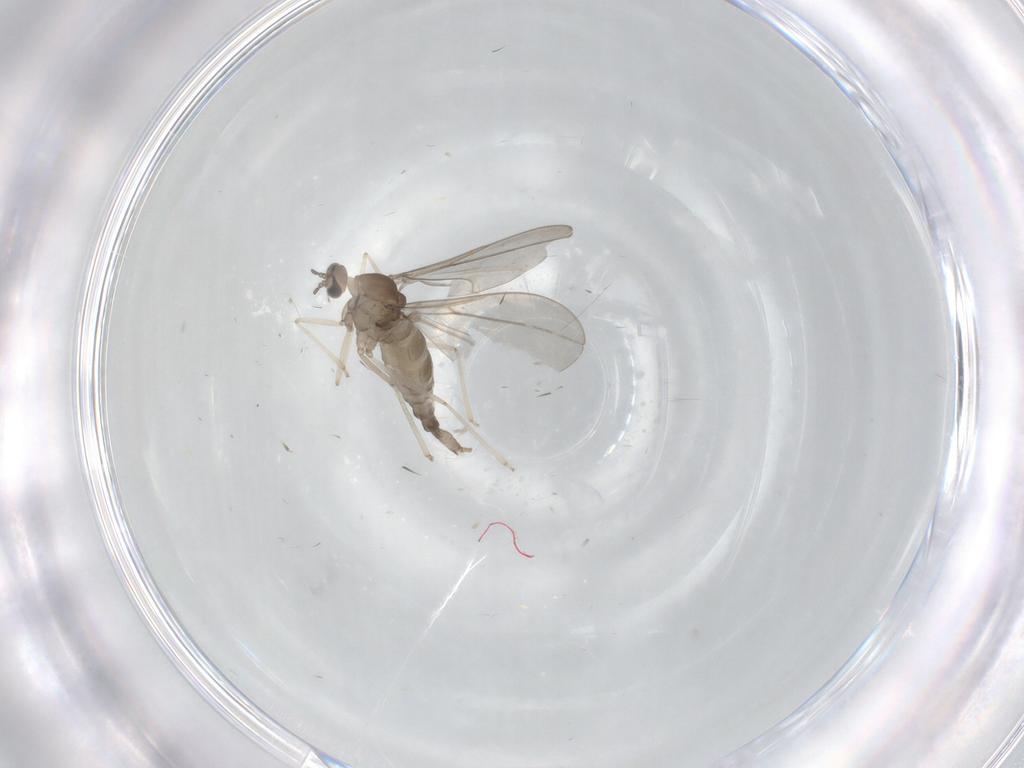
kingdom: Animalia
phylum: Arthropoda
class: Insecta
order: Diptera
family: Cecidomyiidae
